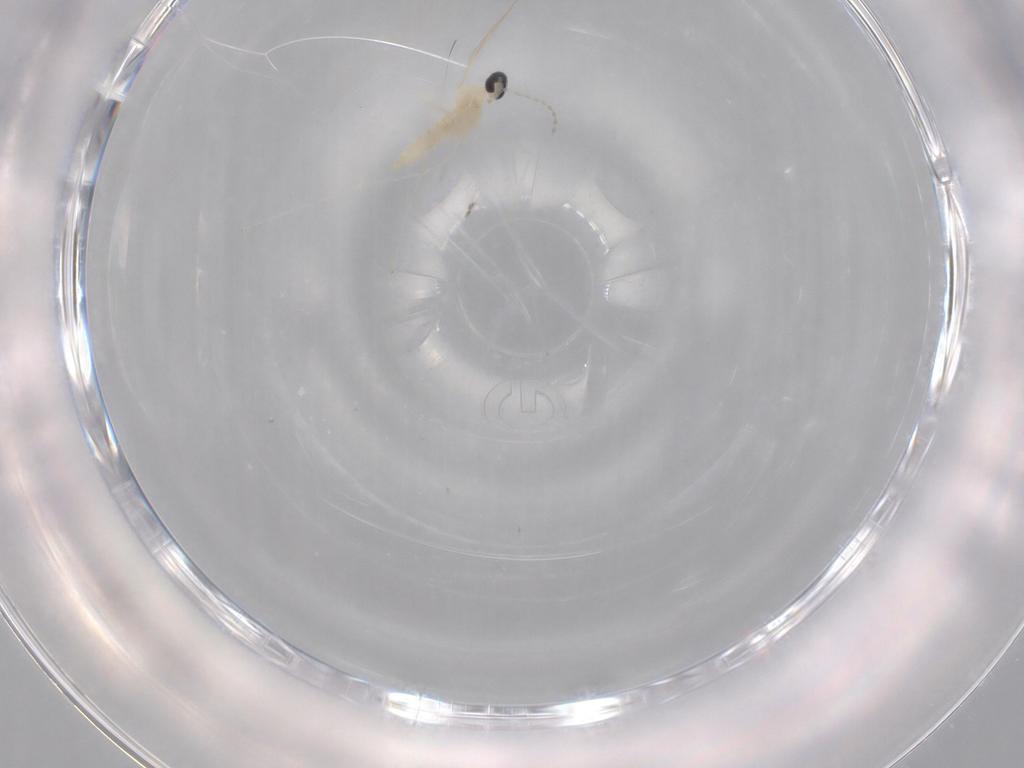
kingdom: Animalia
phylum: Arthropoda
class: Insecta
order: Diptera
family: Cecidomyiidae
